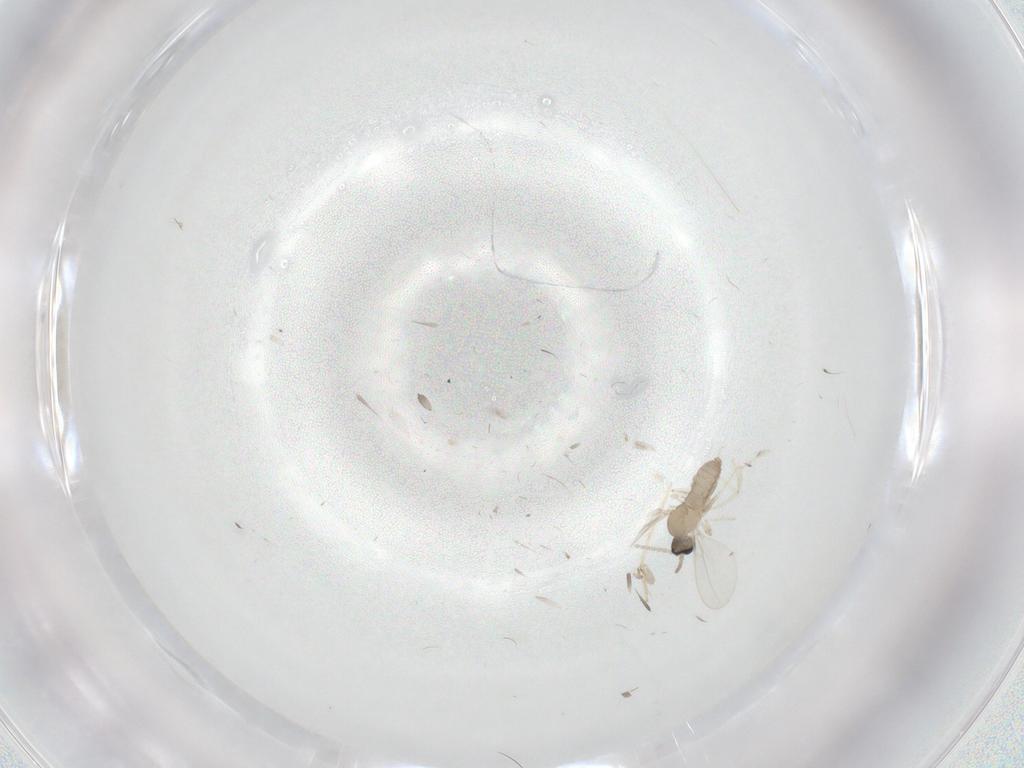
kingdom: Animalia
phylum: Arthropoda
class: Insecta
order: Diptera
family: Cecidomyiidae
